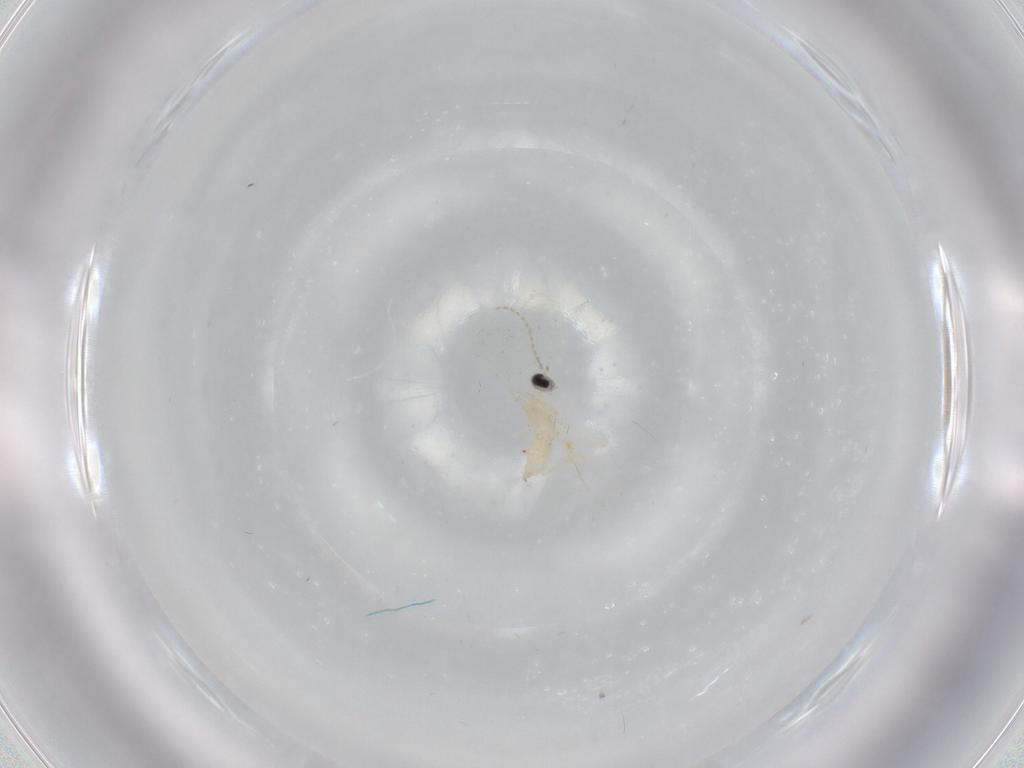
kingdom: Animalia
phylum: Arthropoda
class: Insecta
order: Diptera
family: Cecidomyiidae
